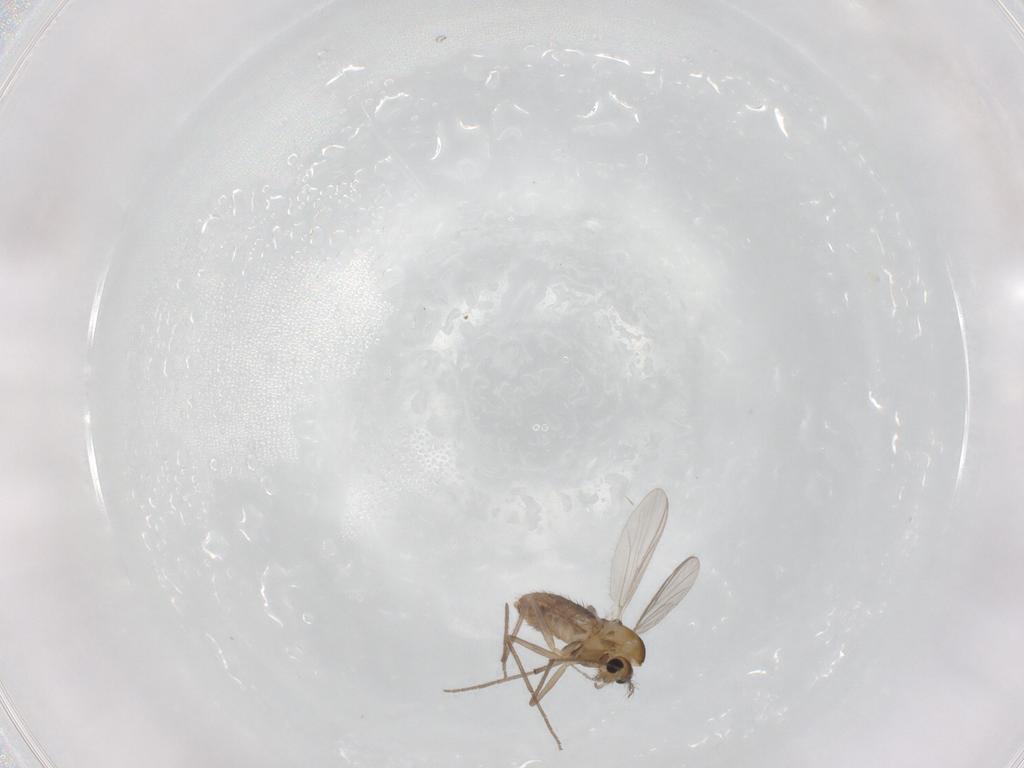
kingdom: Animalia
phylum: Arthropoda
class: Insecta
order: Diptera
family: Chironomidae
